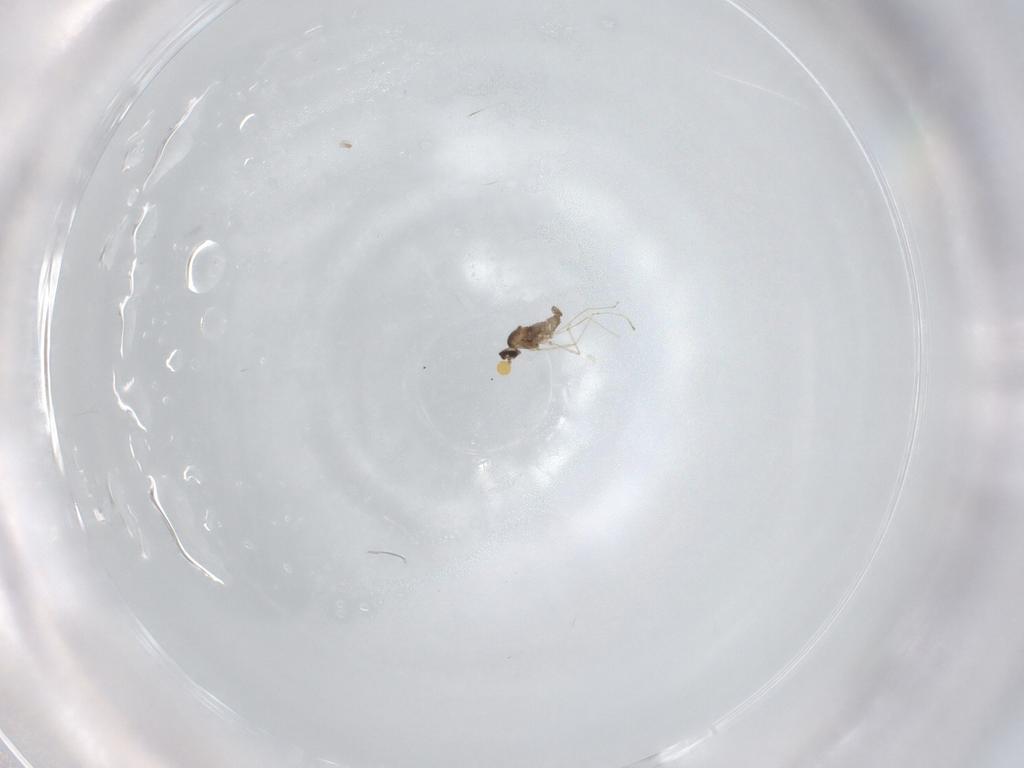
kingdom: Animalia
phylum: Arthropoda
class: Insecta
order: Diptera
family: Cecidomyiidae
